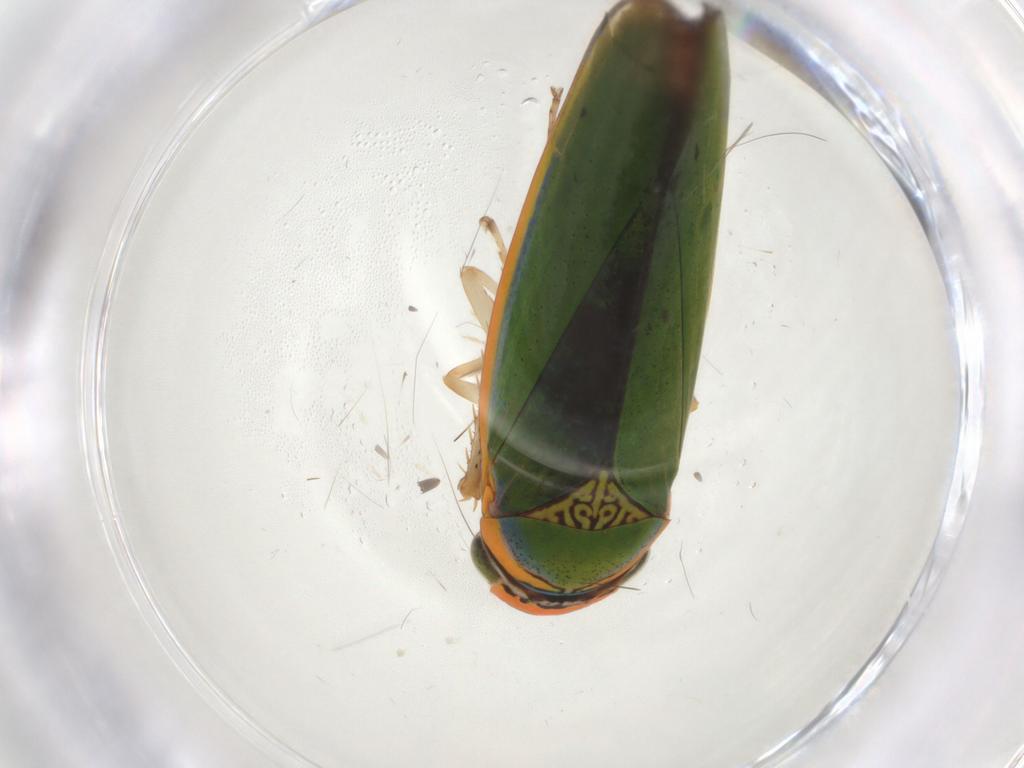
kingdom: Animalia
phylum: Arthropoda
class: Insecta
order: Hemiptera
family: Cicadellidae
